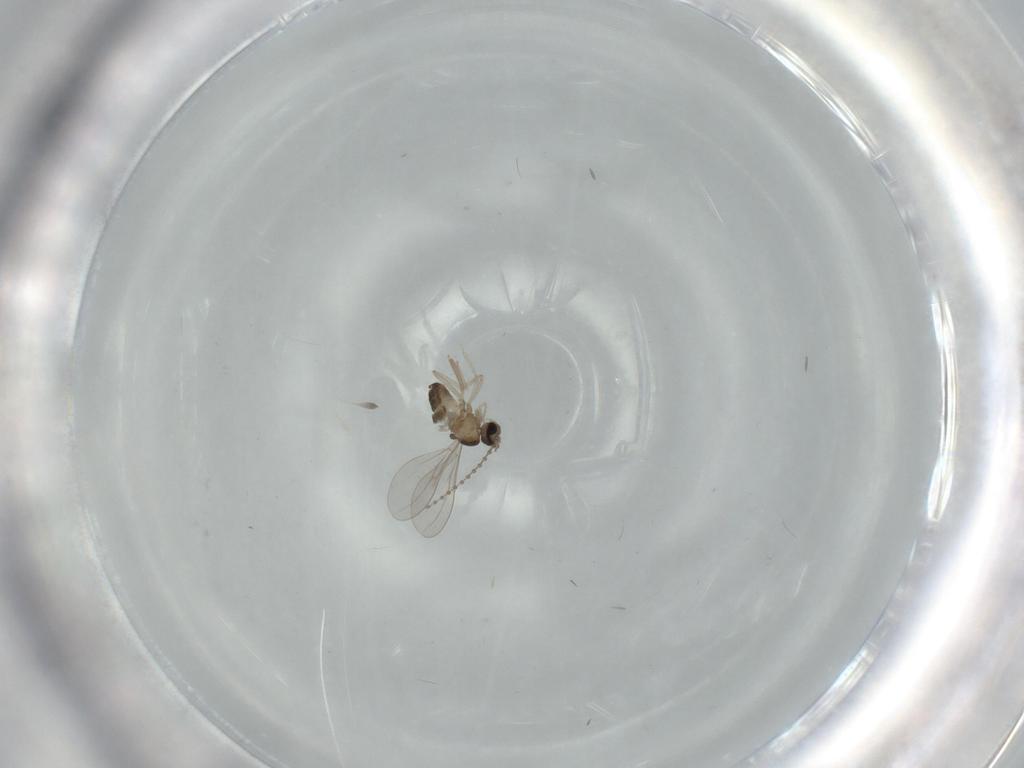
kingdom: Animalia
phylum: Arthropoda
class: Insecta
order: Diptera
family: Cecidomyiidae
